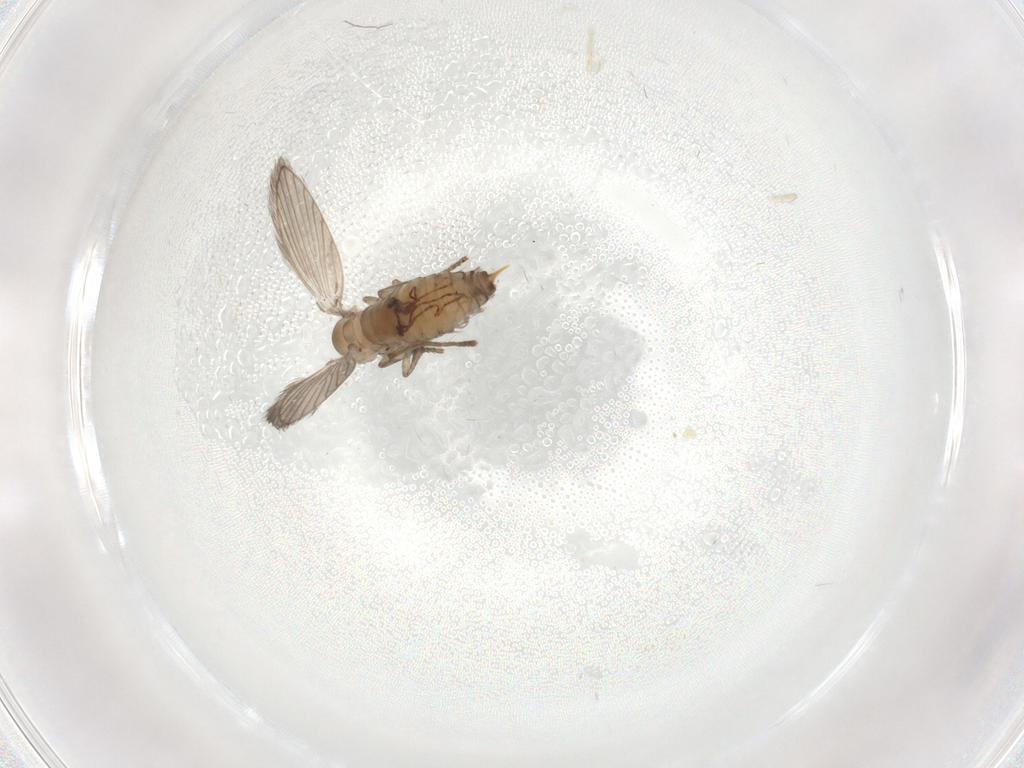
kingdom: Animalia
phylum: Arthropoda
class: Insecta
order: Diptera
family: Psychodidae
